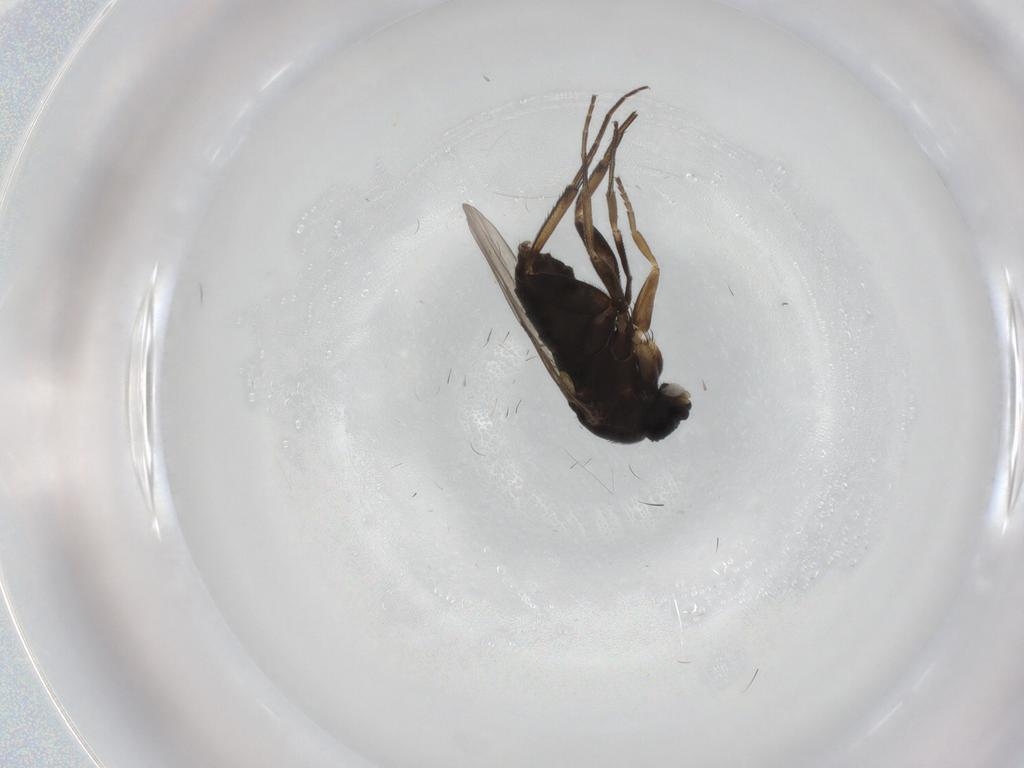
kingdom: Animalia
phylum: Arthropoda
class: Insecta
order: Diptera
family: Phoridae
